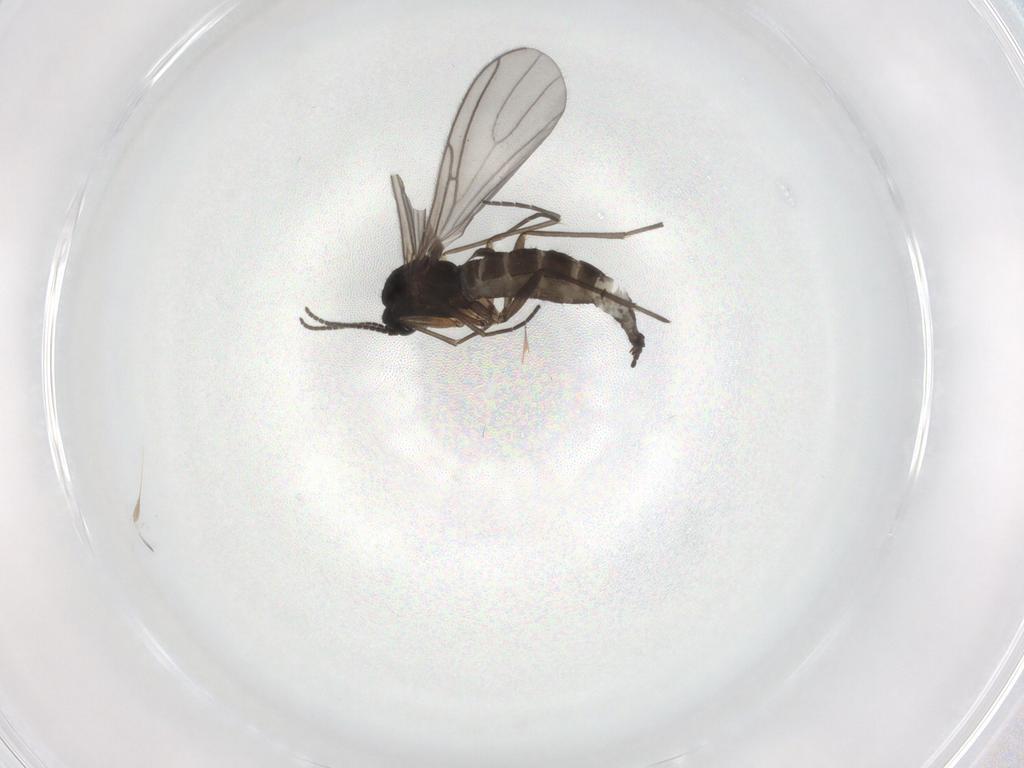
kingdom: Animalia
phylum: Arthropoda
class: Insecta
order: Diptera
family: Sciaridae
